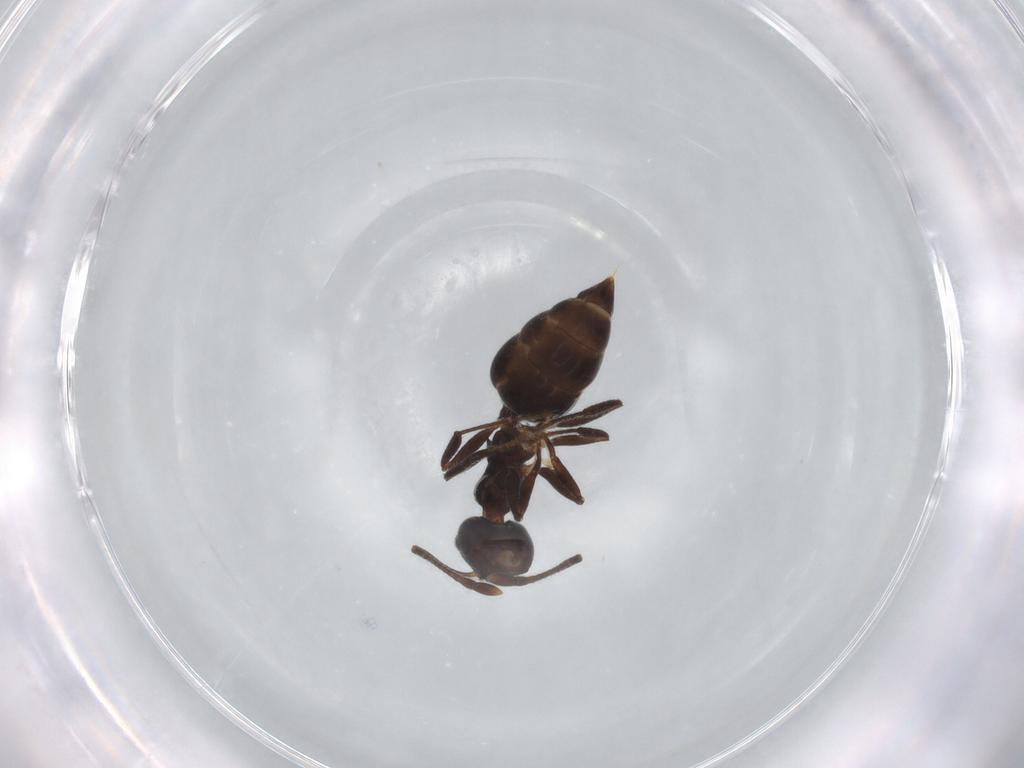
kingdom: Animalia
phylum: Arthropoda
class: Insecta
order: Hymenoptera
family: Formicidae
